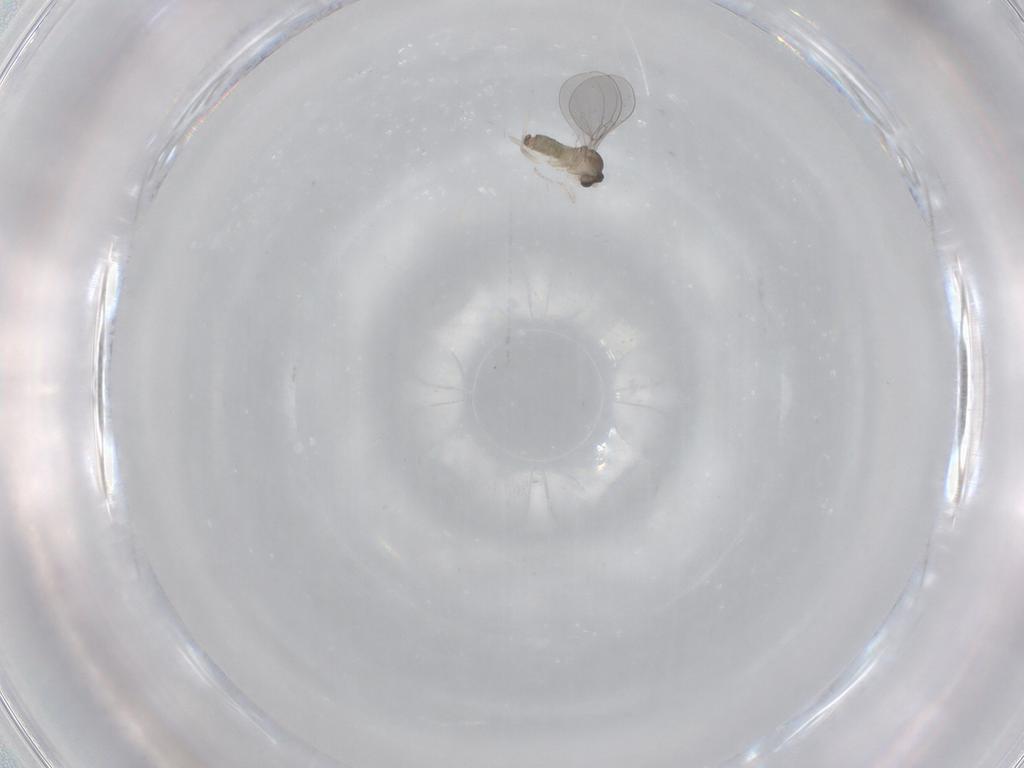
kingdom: Animalia
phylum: Arthropoda
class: Insecta
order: Diptera
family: Cecidomyiidae
